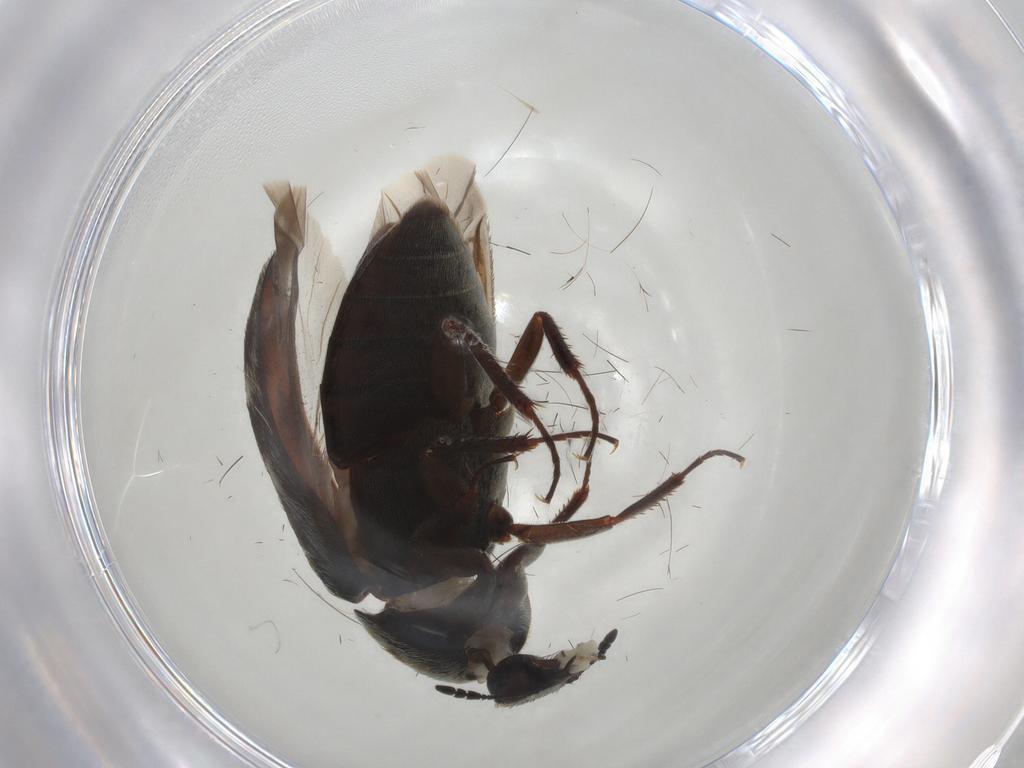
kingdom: Animalia
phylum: Arthropoda
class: Insecta
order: Coleoptera
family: Dermestidae
